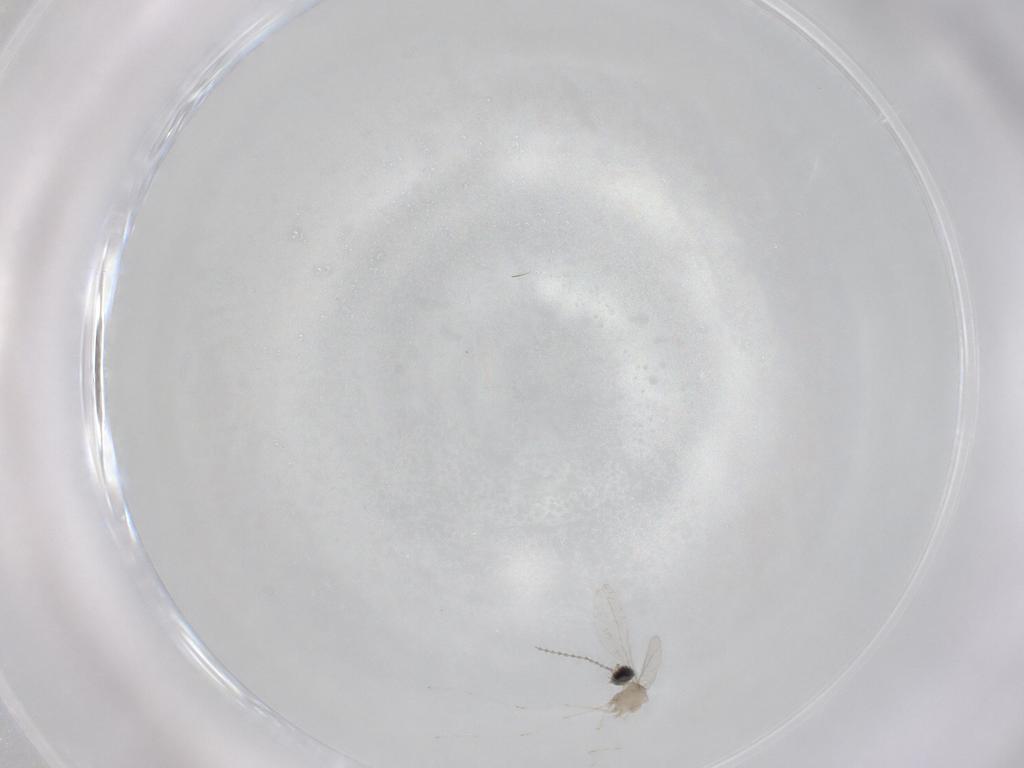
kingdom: Animalia
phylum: Arthropoda
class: Insecta
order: Diptera
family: Cecidomyiidae
